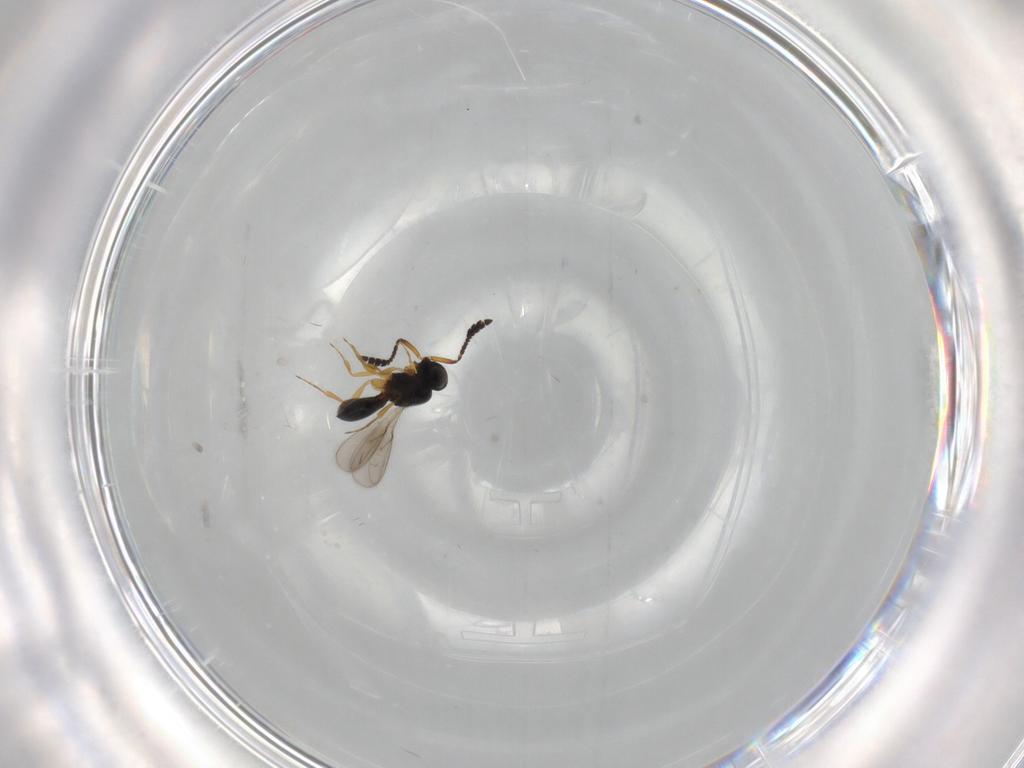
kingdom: Animalia
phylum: Arthropoda
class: Insecta
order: Hymenoptera
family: Scelionidae
